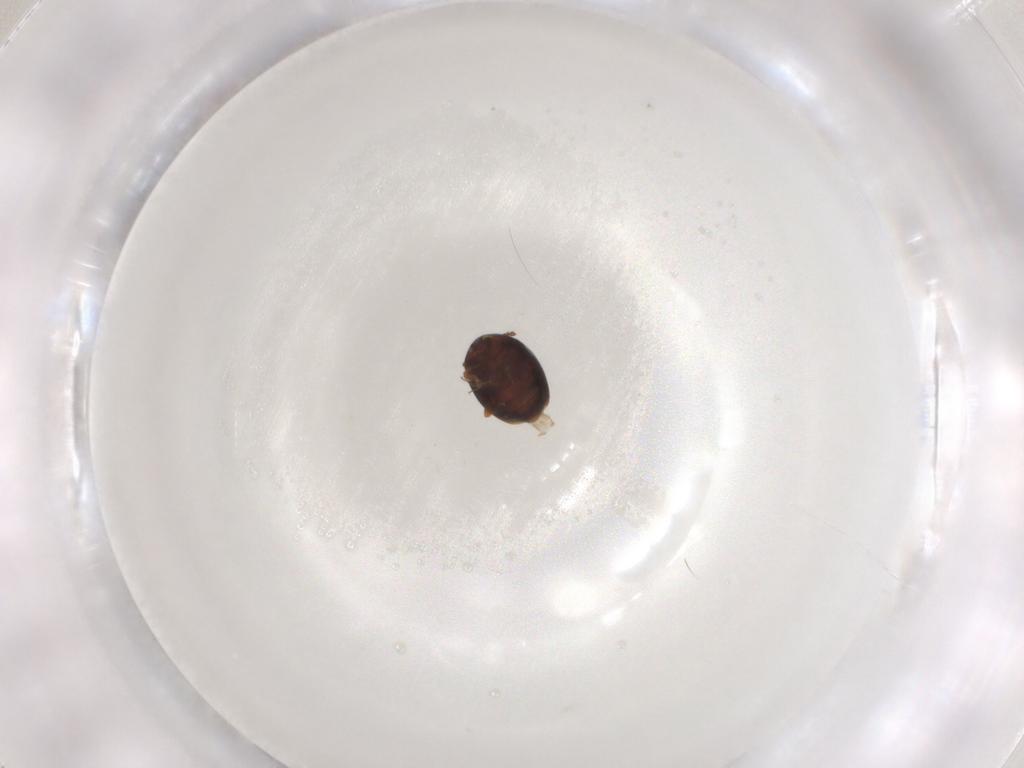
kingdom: Animalia
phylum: Arthropoda
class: Insecta
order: Coleoptera
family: Corylophidae
